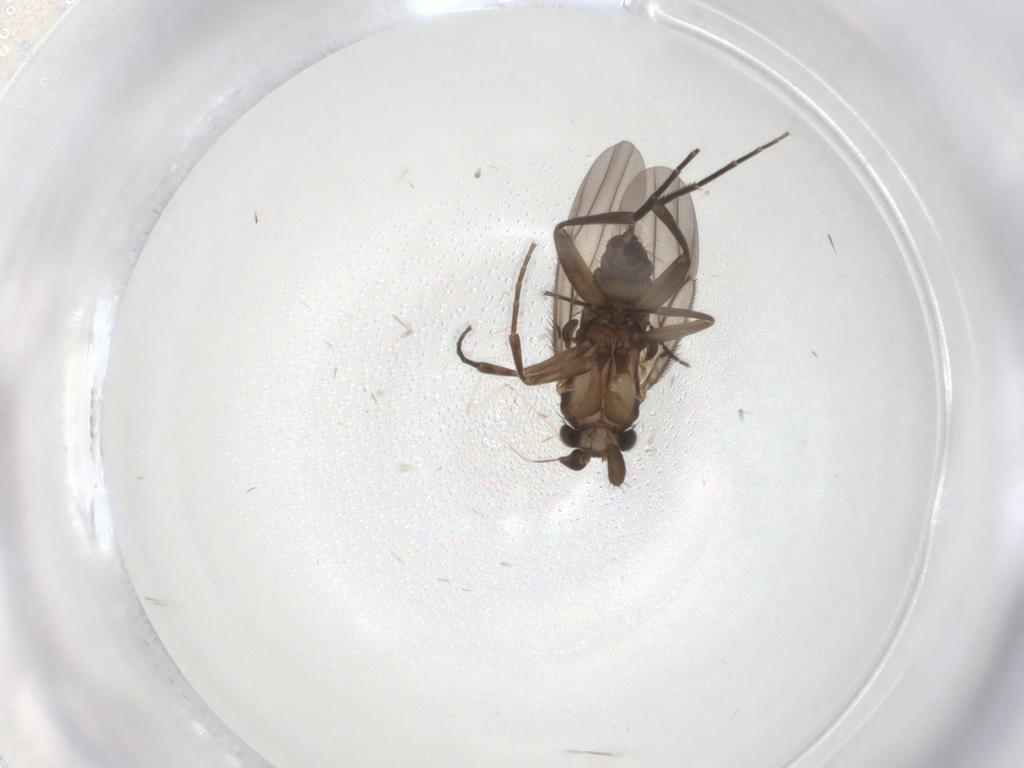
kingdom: Animalia
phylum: Arthropoda
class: Insecta
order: Diptera
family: Phoridae
